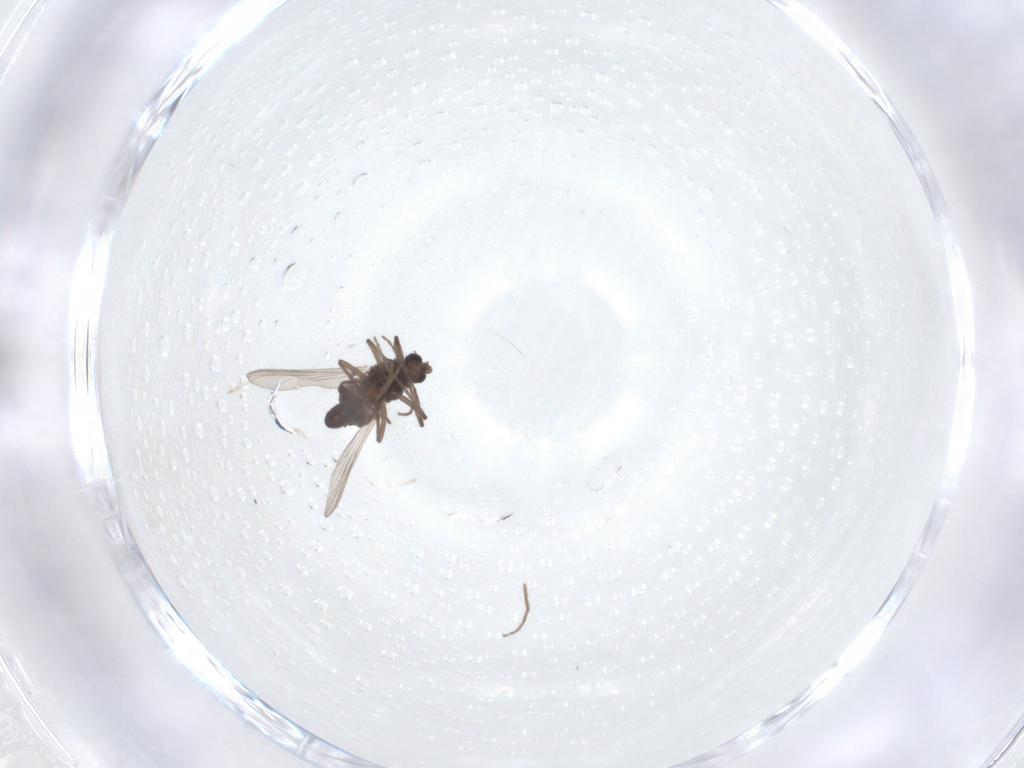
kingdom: Animalia
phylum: Arthropoda
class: Insecta
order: Diptera
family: Chironomidae
